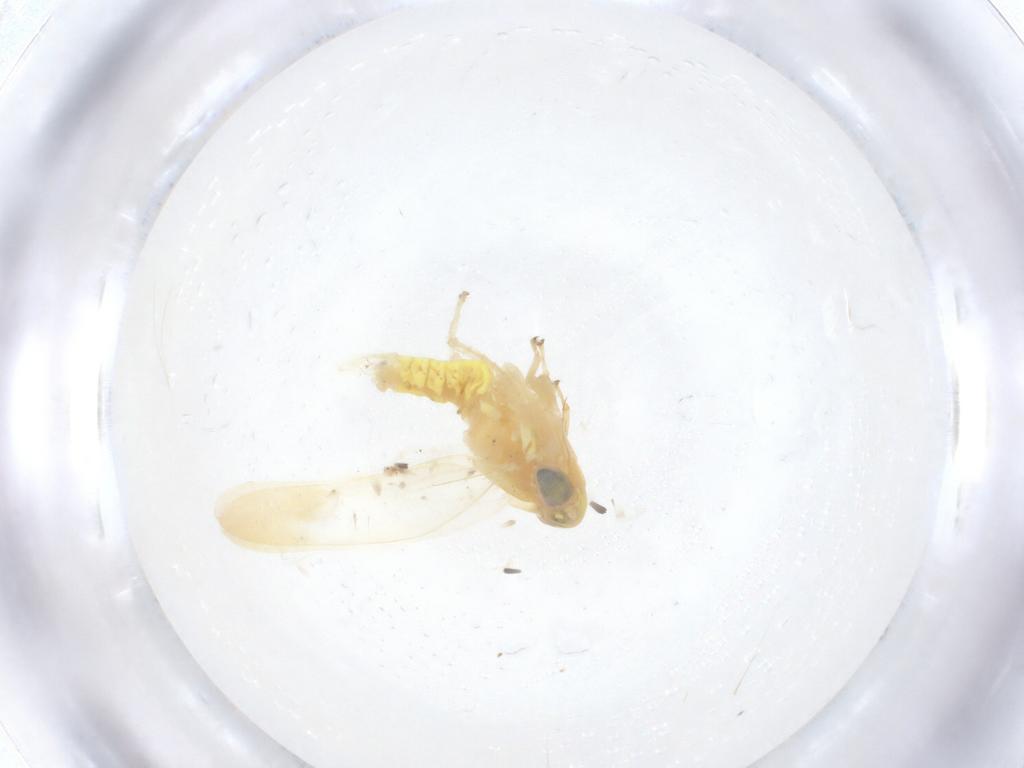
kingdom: Animalia
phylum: Arthropoda
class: Insecta
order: Hemiptera
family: Cicadellidae
